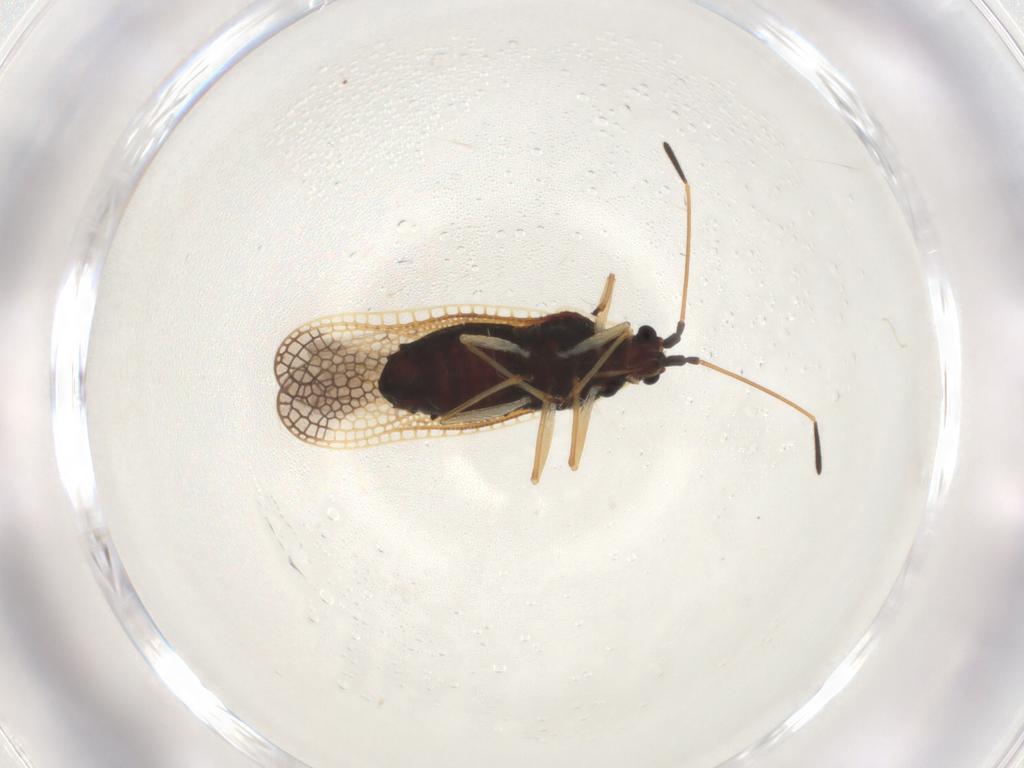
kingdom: Animalia
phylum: Arthropoda
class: Insecta
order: Hemiptera
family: Tingidae
